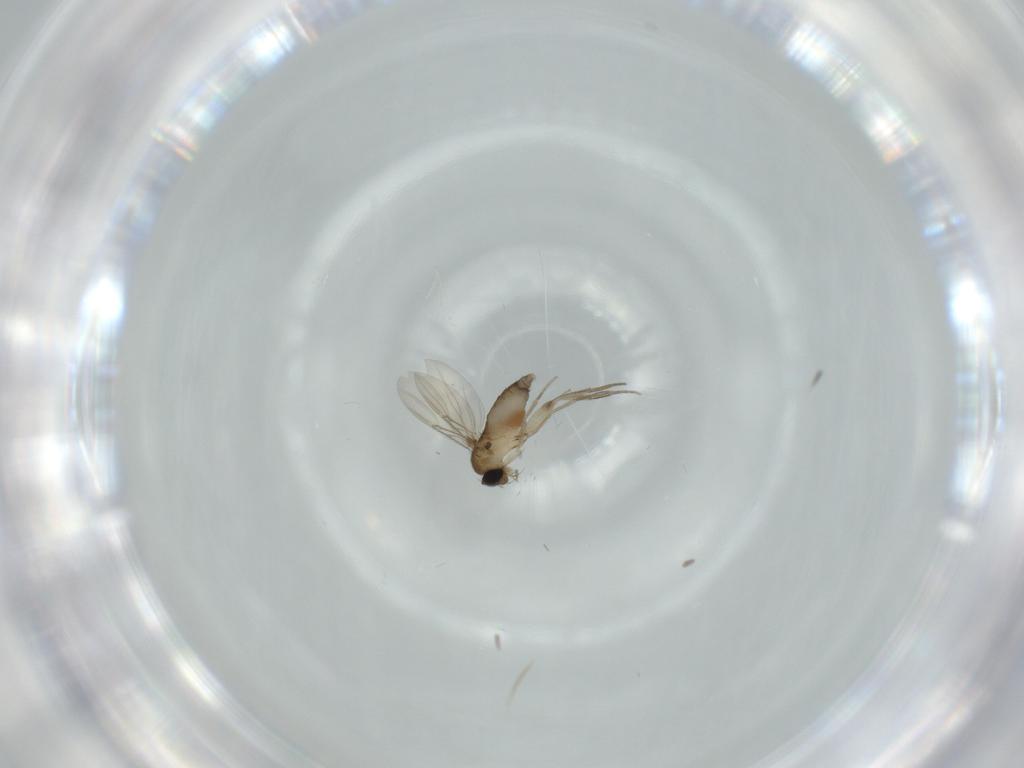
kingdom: Animalia
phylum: Arthropoda
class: Insecta
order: Diptera
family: Phoridae
